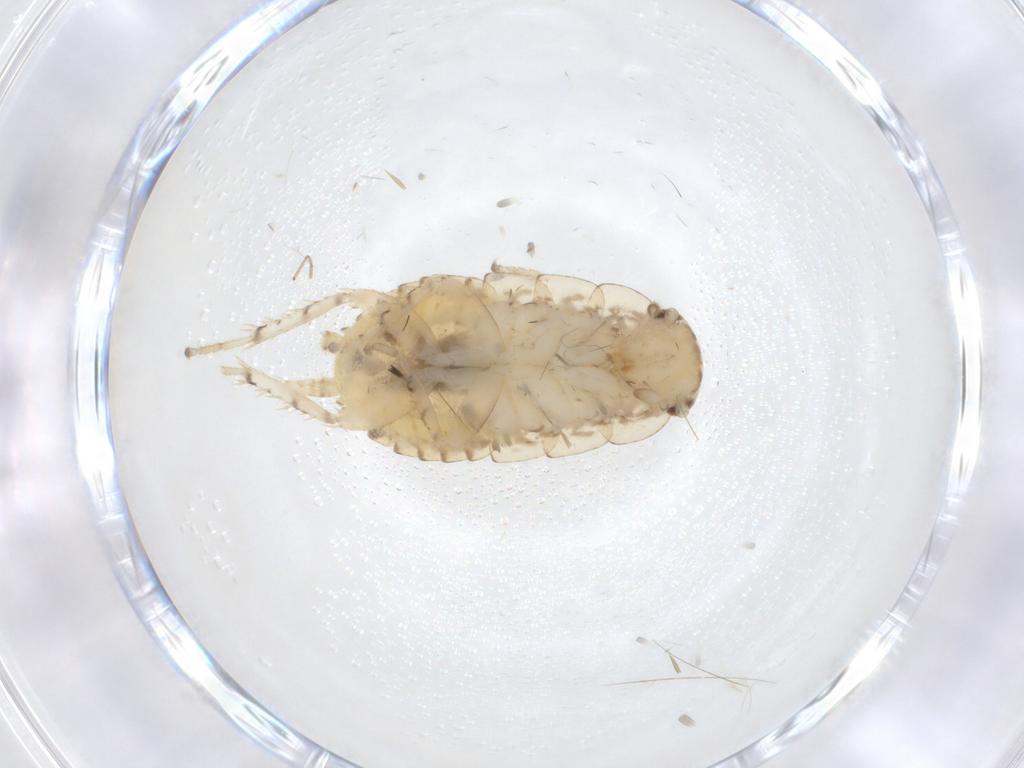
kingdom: Animalia
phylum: Arthropoda
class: Insecta
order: Blattodea
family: Ectobiidae
